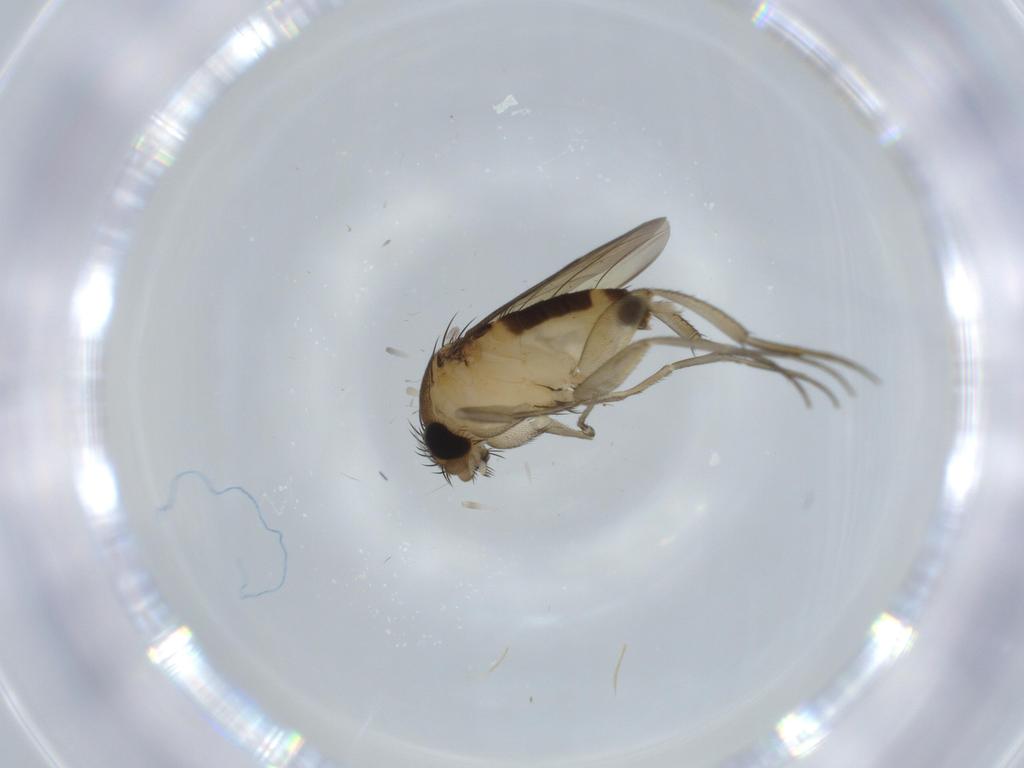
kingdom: Animalia
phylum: Arthropoda
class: Insecta
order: Diptera
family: Phoridae
